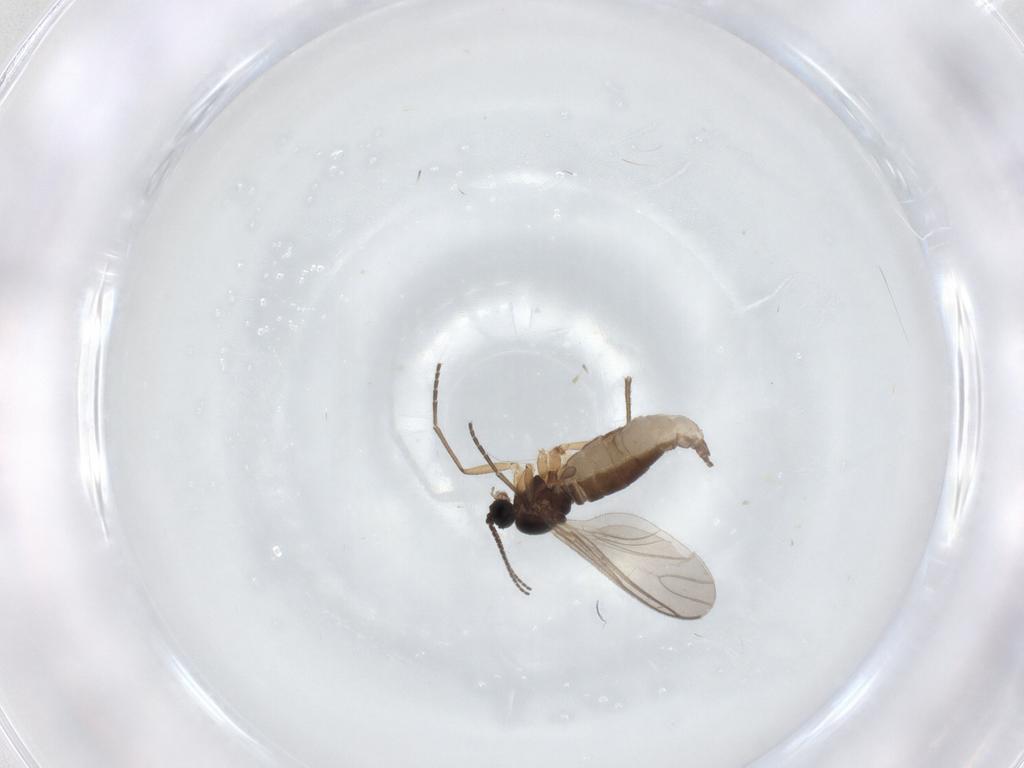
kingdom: Animalia
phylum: Arthropoda
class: Insecta
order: Diptera
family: Sciaridae
